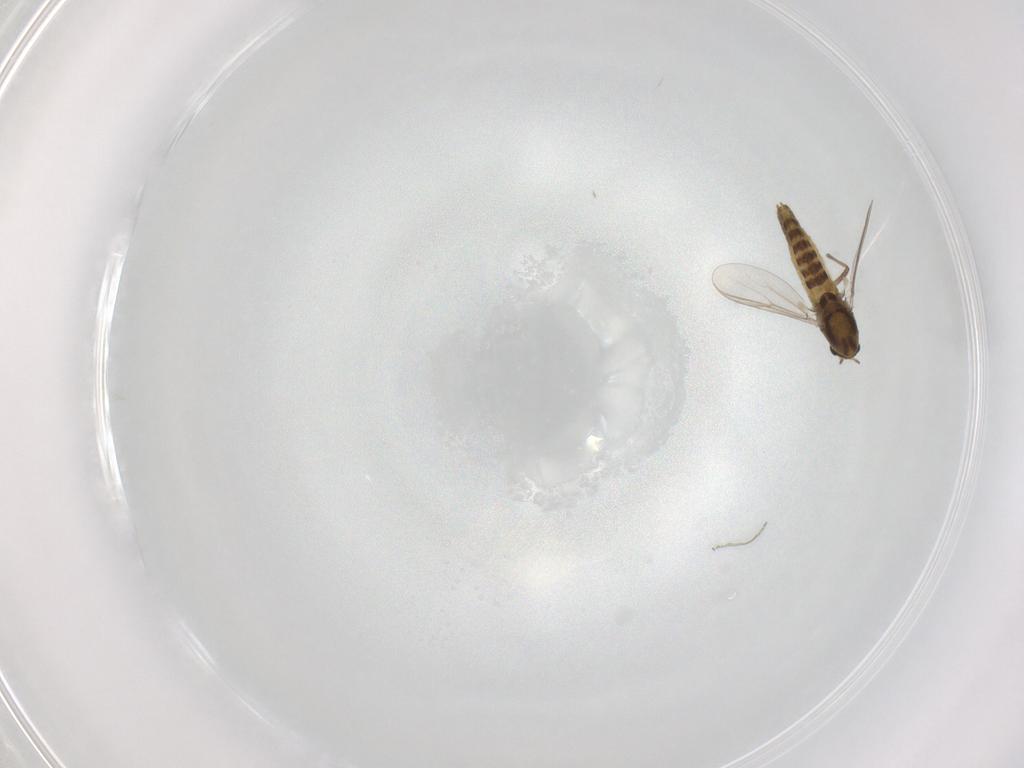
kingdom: Animalia
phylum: Arthropoda
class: Insecta
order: Diptera
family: Chironomidae
